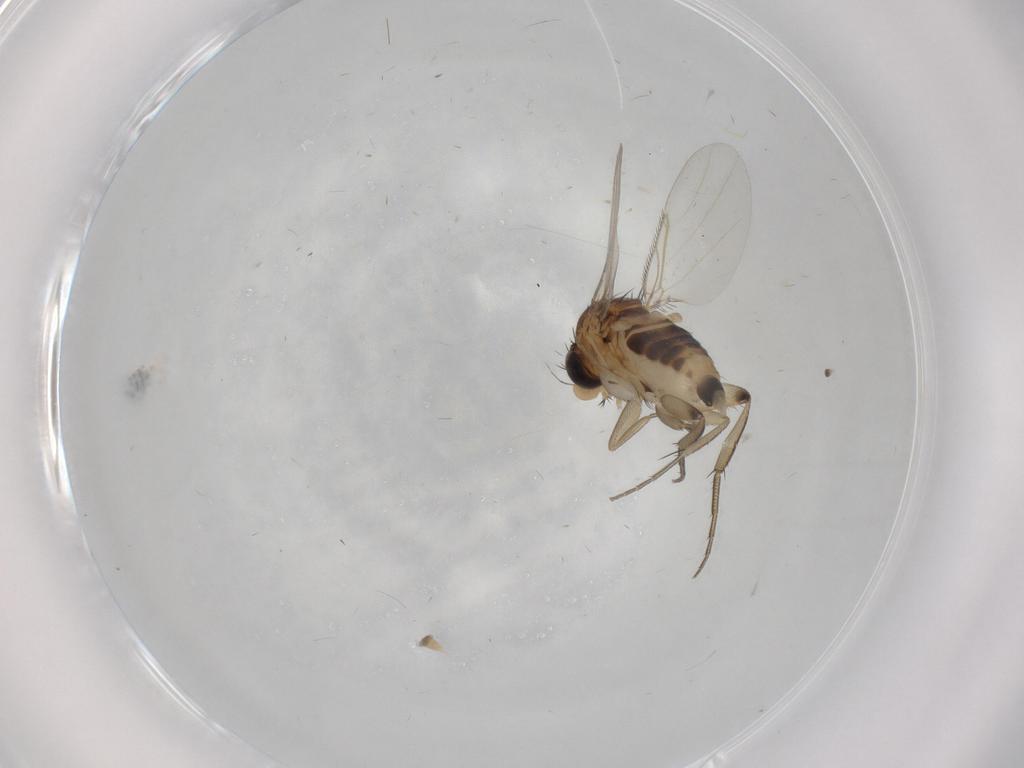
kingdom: Animalia
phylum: Arthropoda
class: Insecta
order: Diptera
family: Phoridae
